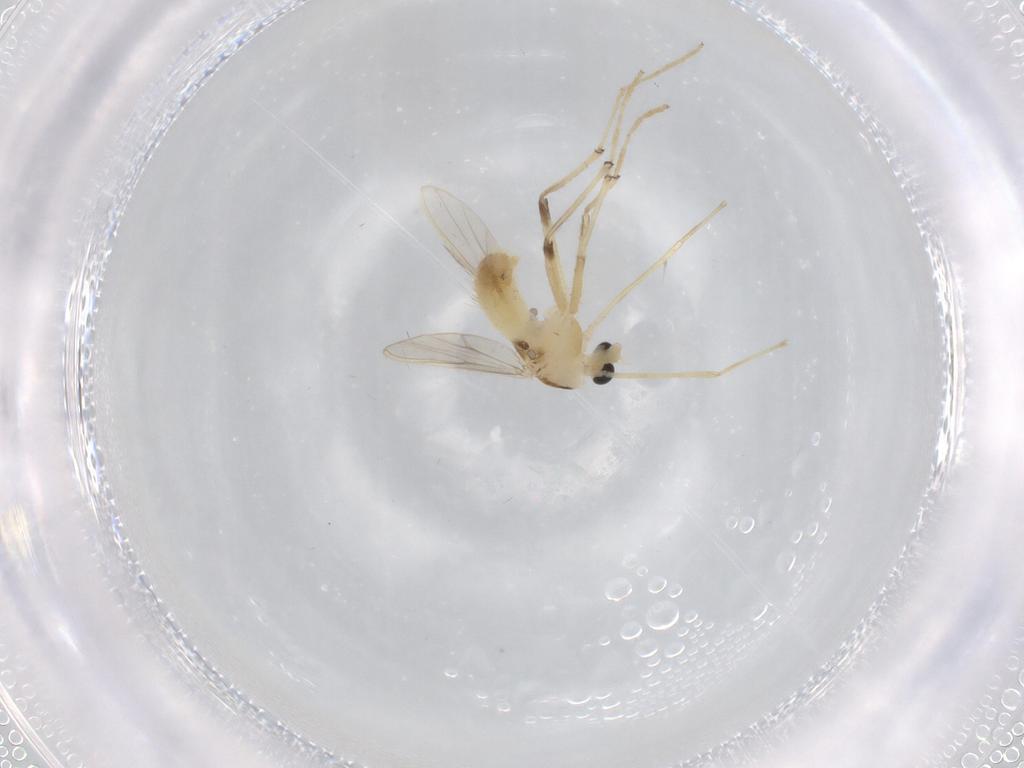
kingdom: Animalia
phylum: Arthropoda
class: Insecta
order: Diptera
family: Chironomidae
